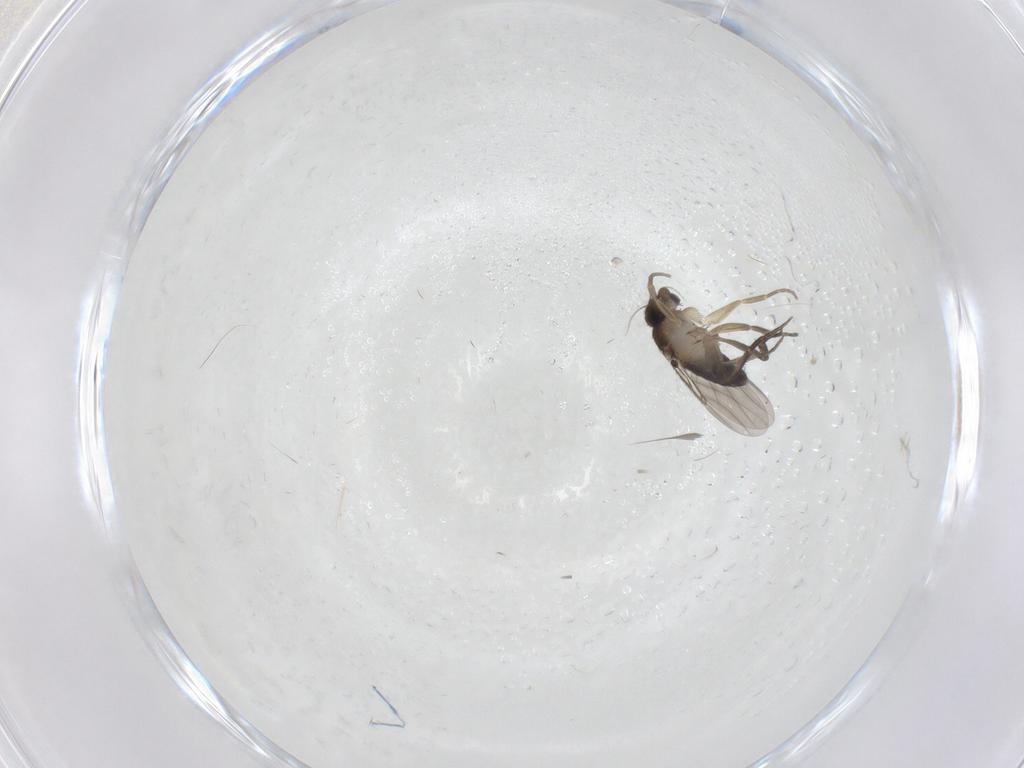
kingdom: Animalia
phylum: Arthropoda
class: Insecta
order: Diptera
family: Phoridae
